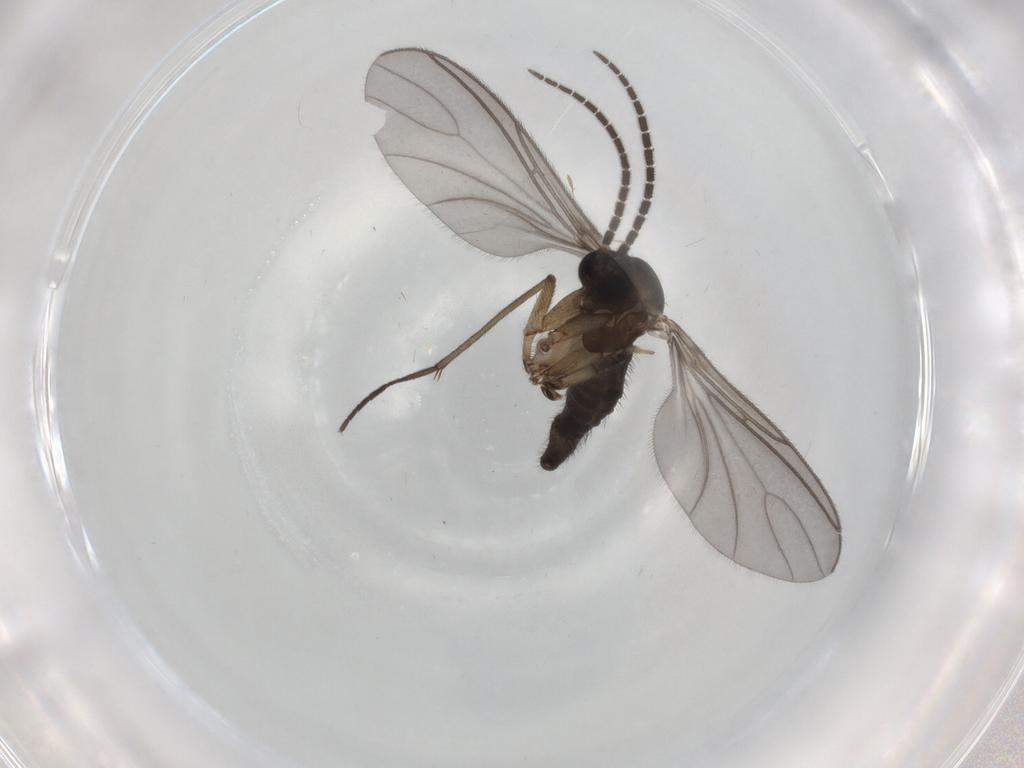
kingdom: Animalia
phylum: Arthropoda
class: Insecta
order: Diptera
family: Sciaridae
